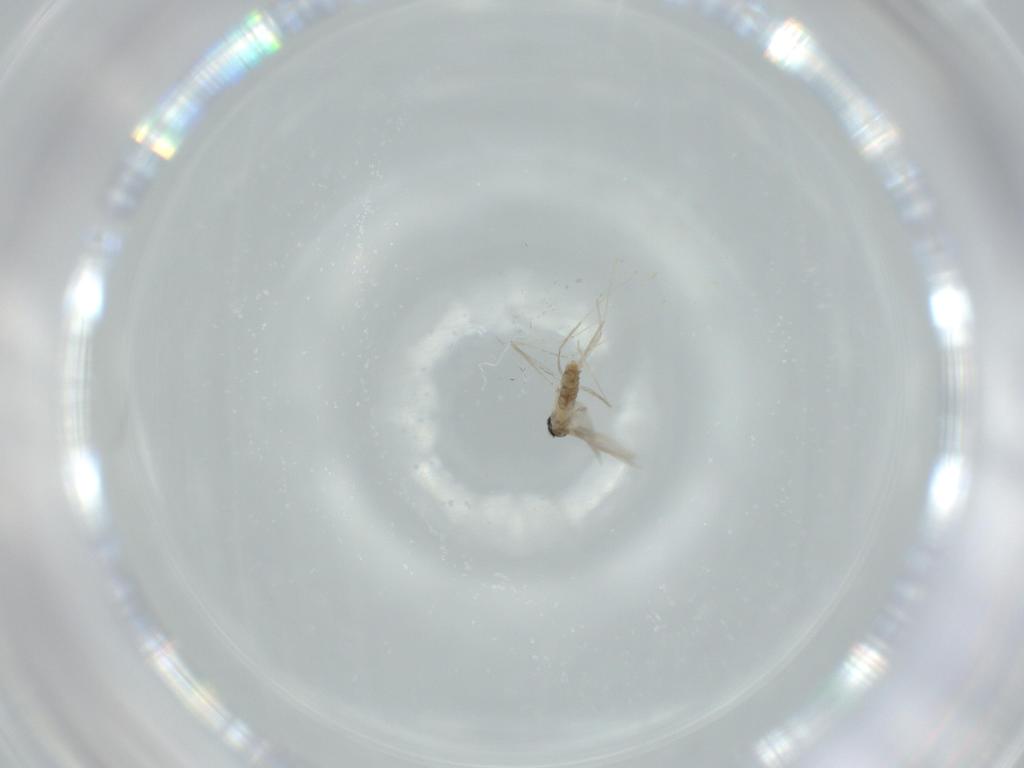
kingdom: Animalia
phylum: Arthropoda
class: Insecta
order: Diptera
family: Cecidomyiidae
